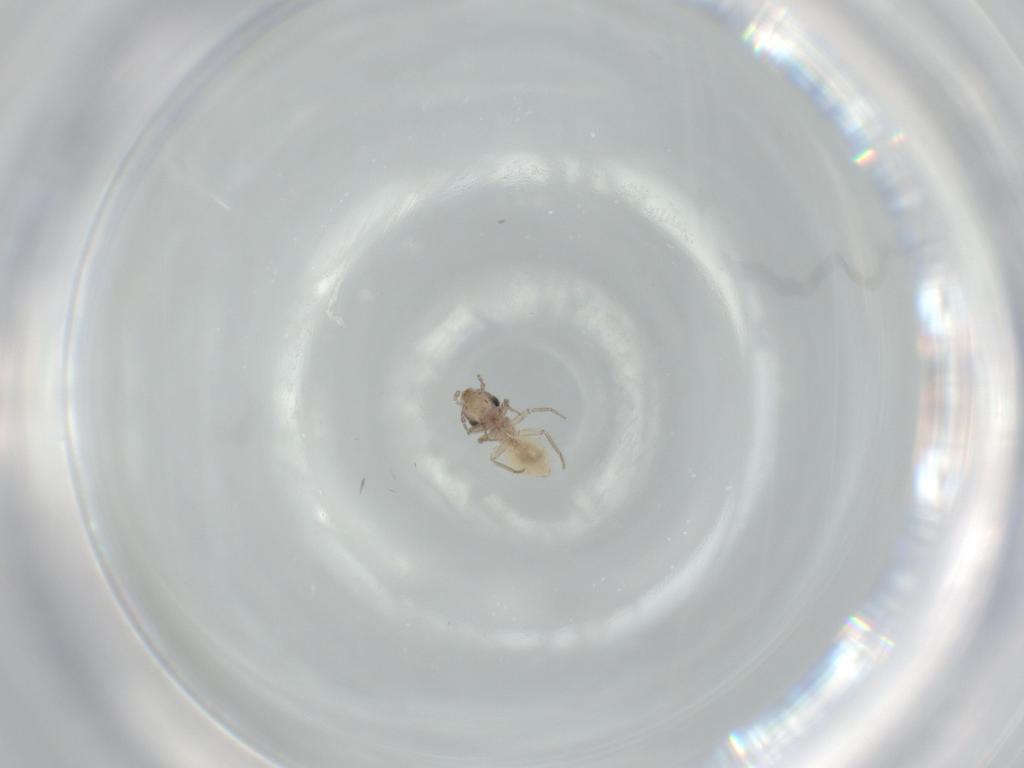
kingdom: Animalia
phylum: Arthropoda
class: Insecta
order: Psocodea
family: Lepidopsocidae
